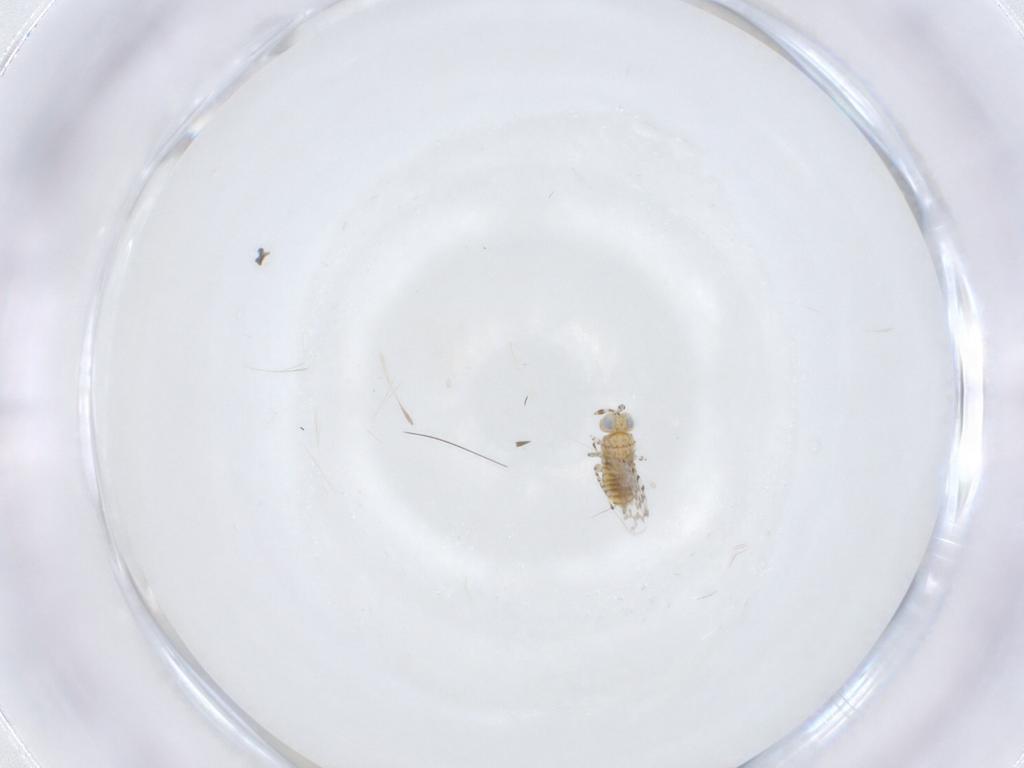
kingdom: Animalia
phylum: Arthropoda
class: Insecta
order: Hymenoptera
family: Aphelinidae
